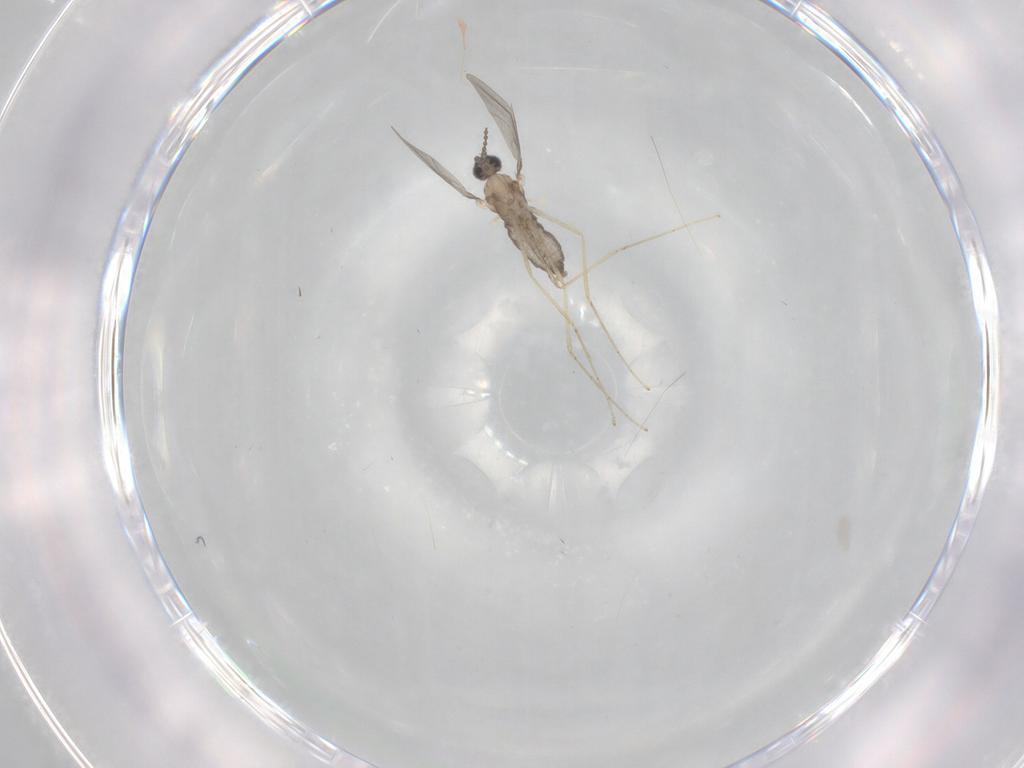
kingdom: Animalia
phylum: Arthropoda
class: Insecta
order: Diptera
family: Cecidomyiidae
